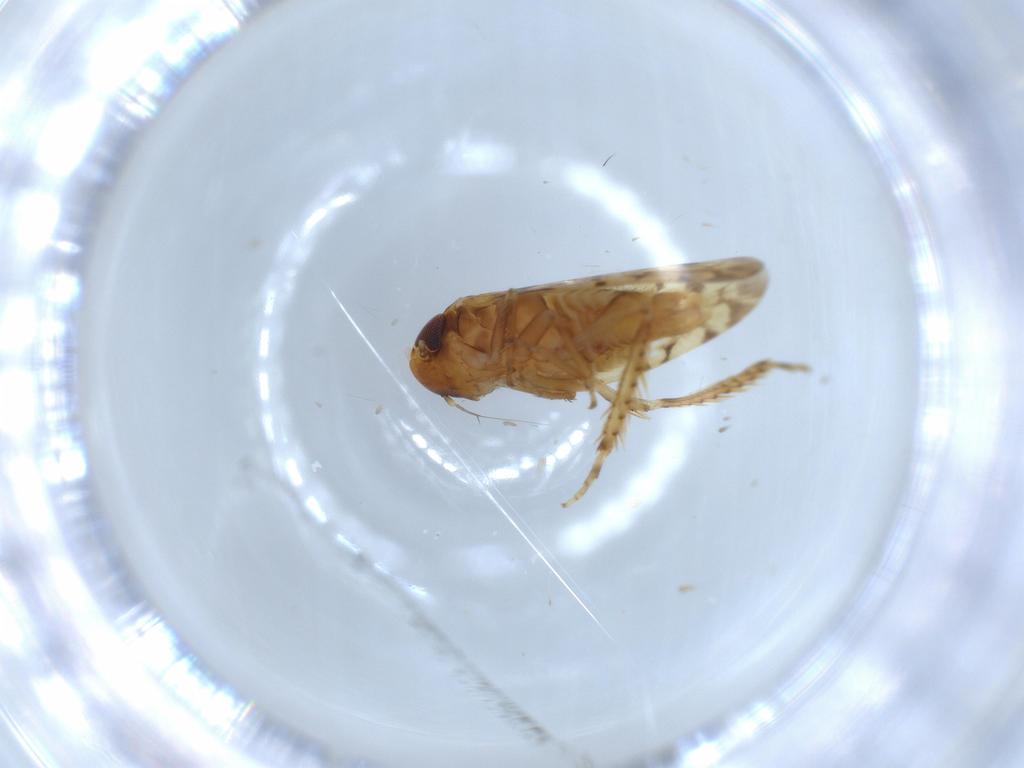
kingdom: Animalia
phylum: Arthropoda
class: Insecta
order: Hemiptera
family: Cicadellidae
